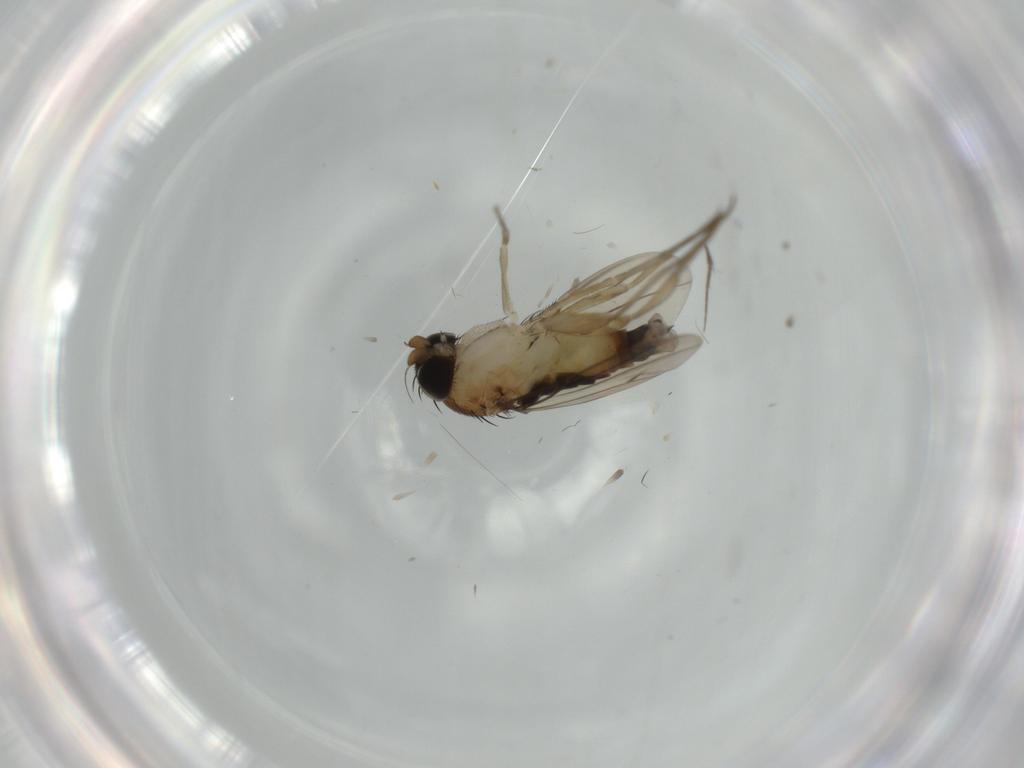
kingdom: Animalia
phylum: Arthropoda
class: Insecta
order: Diptera
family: Phoridae
